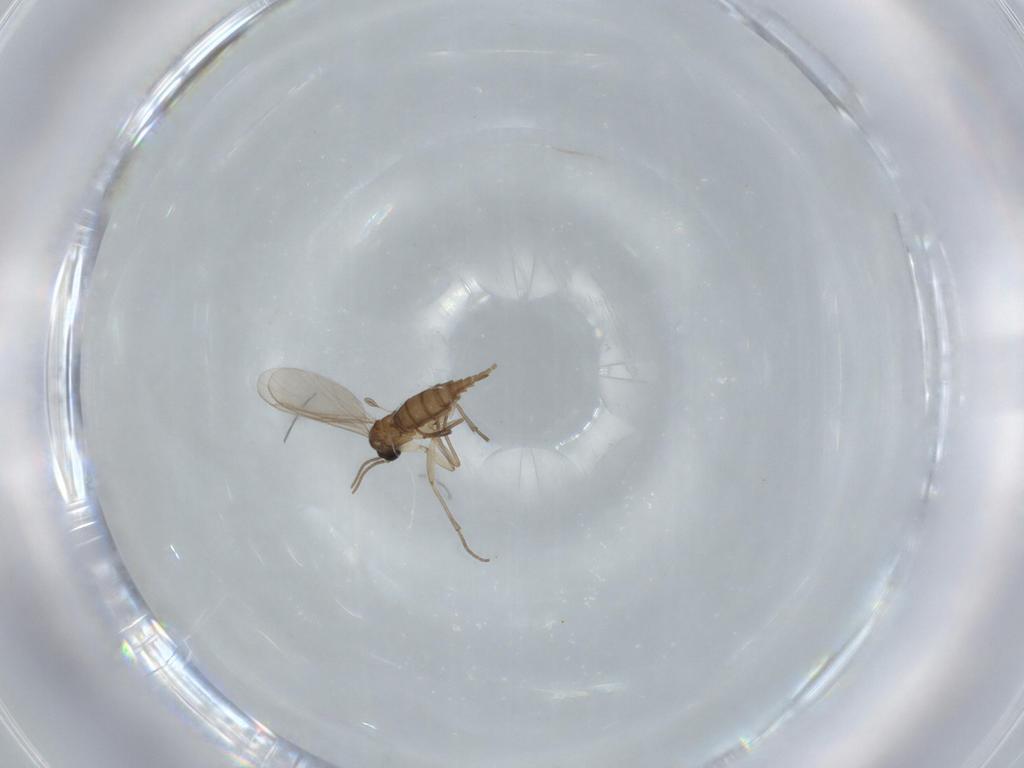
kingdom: Animalia
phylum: Arthropoda
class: Insecta
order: Diptera
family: Sciaridae
